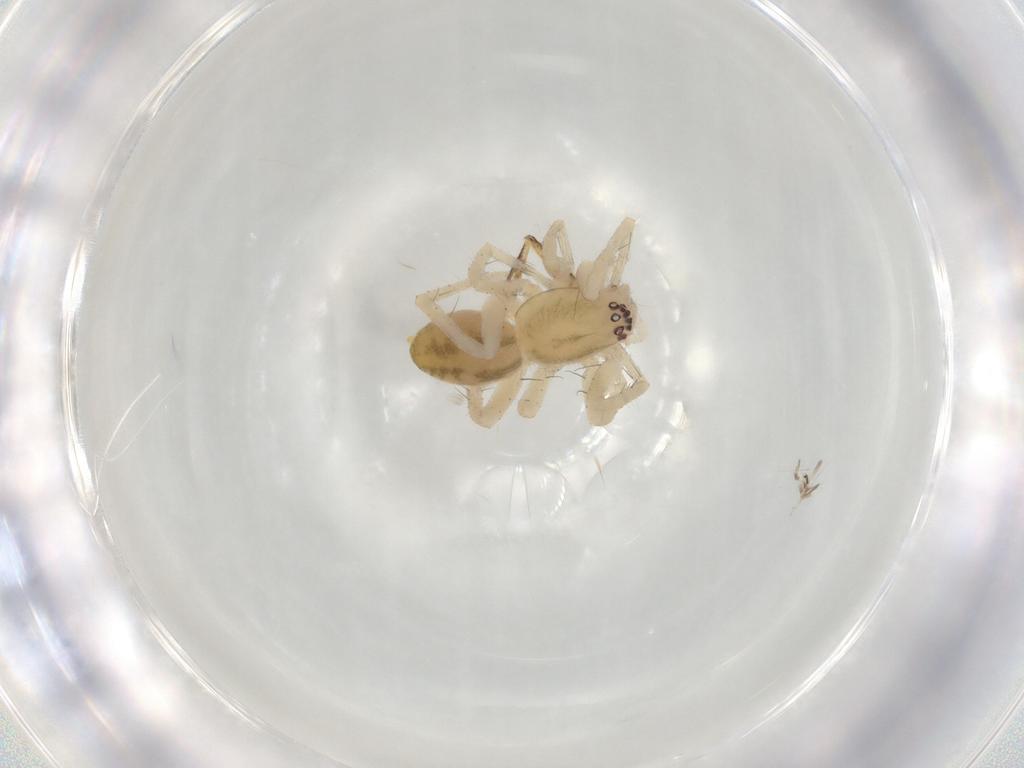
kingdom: Animalia
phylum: Arthropoda
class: Arachnida
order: Araneae
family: Anyphaenidae
